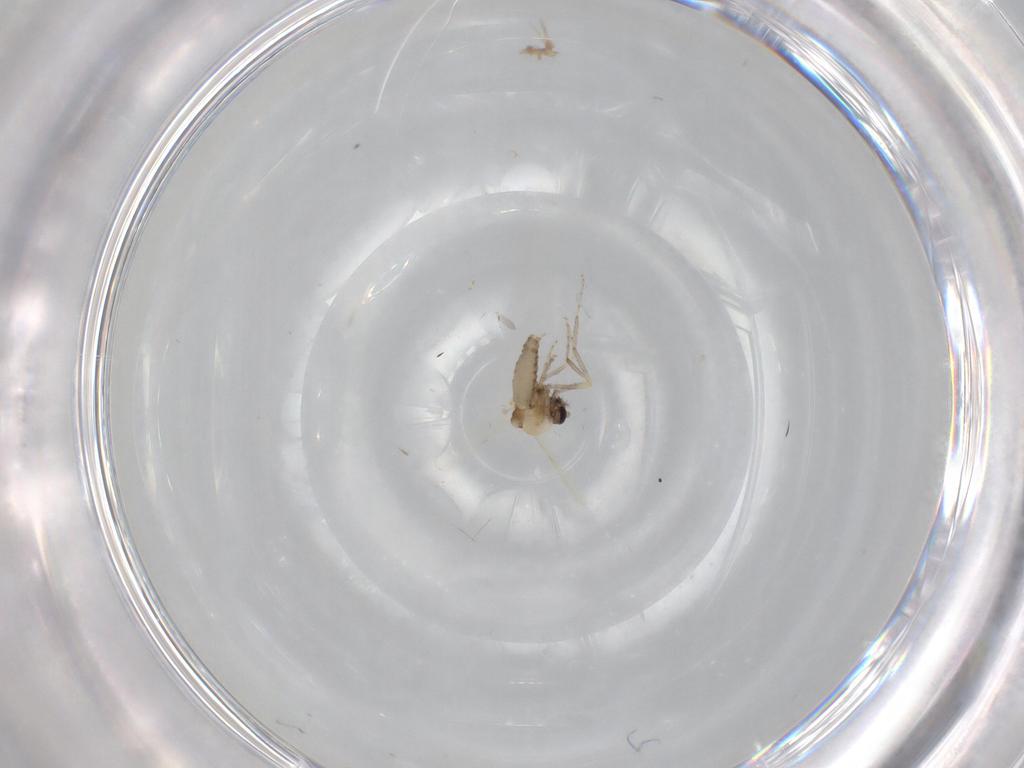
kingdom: Animalia
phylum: Arthropoda
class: Insecta
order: Diptera
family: Ceratopogonidae
